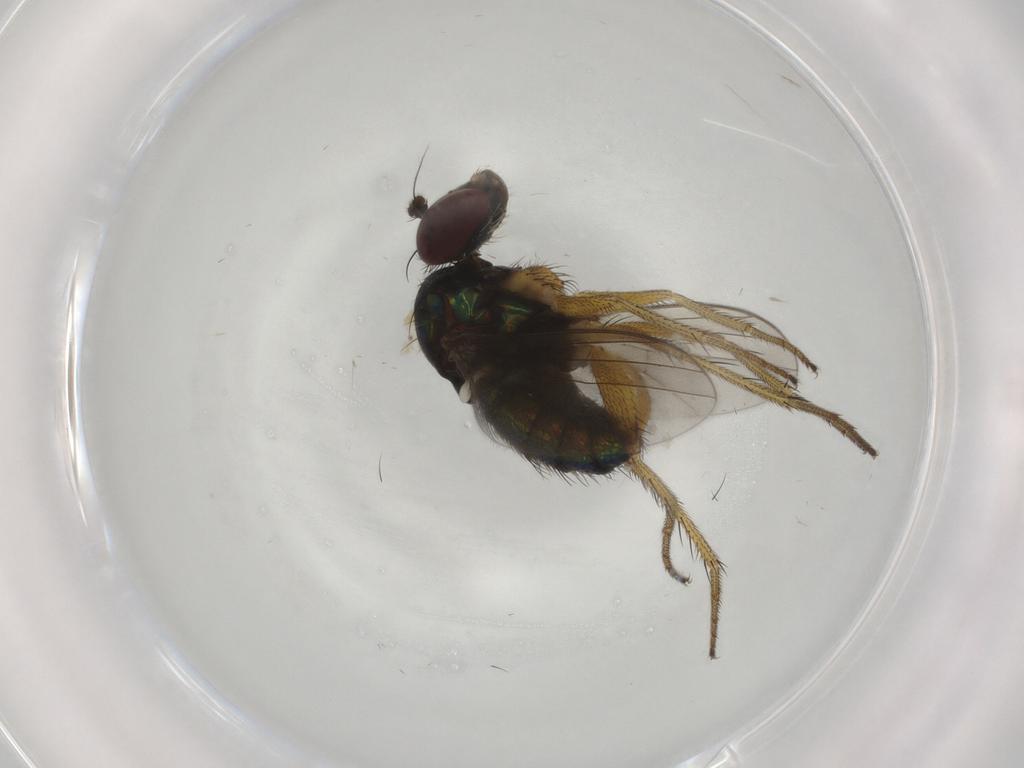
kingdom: Animalia
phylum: Arthropoda
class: Insecta
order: Diptera
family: Dolichopodidae
